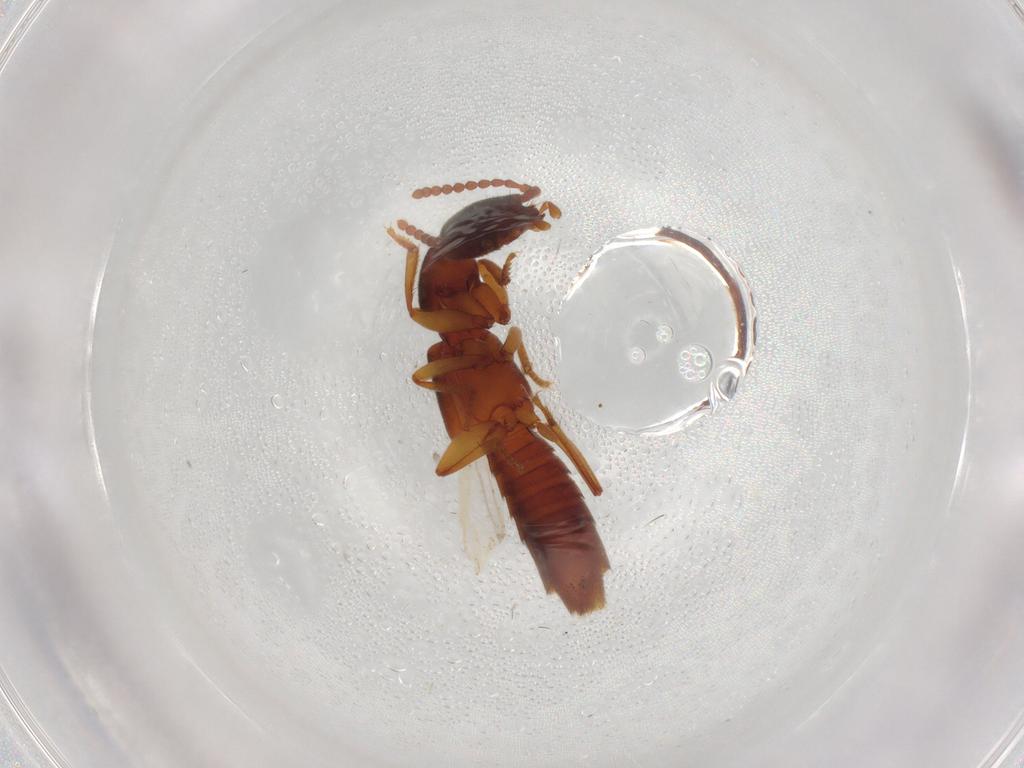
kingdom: Animalia
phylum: Arthropoda
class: Insecta
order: Coleoptera
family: Staphylinidae
